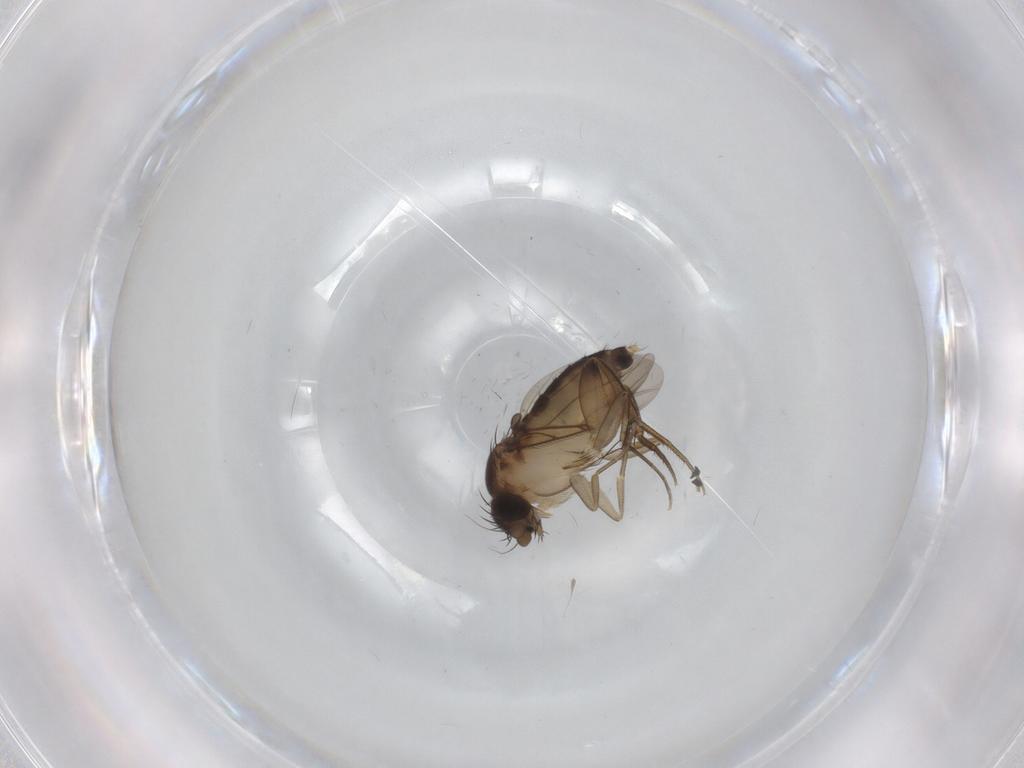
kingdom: Animalia
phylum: Arthropoda
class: Insecta
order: Diptera
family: Phoridae
